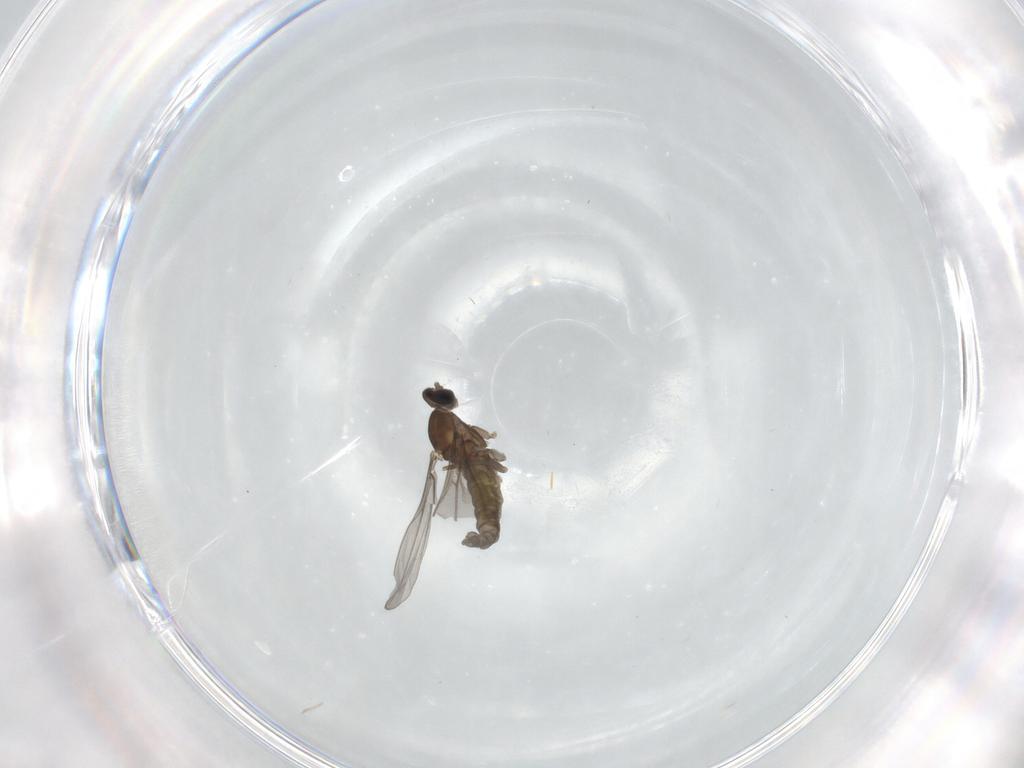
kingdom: Animalia
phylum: Arthropoda
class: Insecta
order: Diptera
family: Cecidomyiidae
